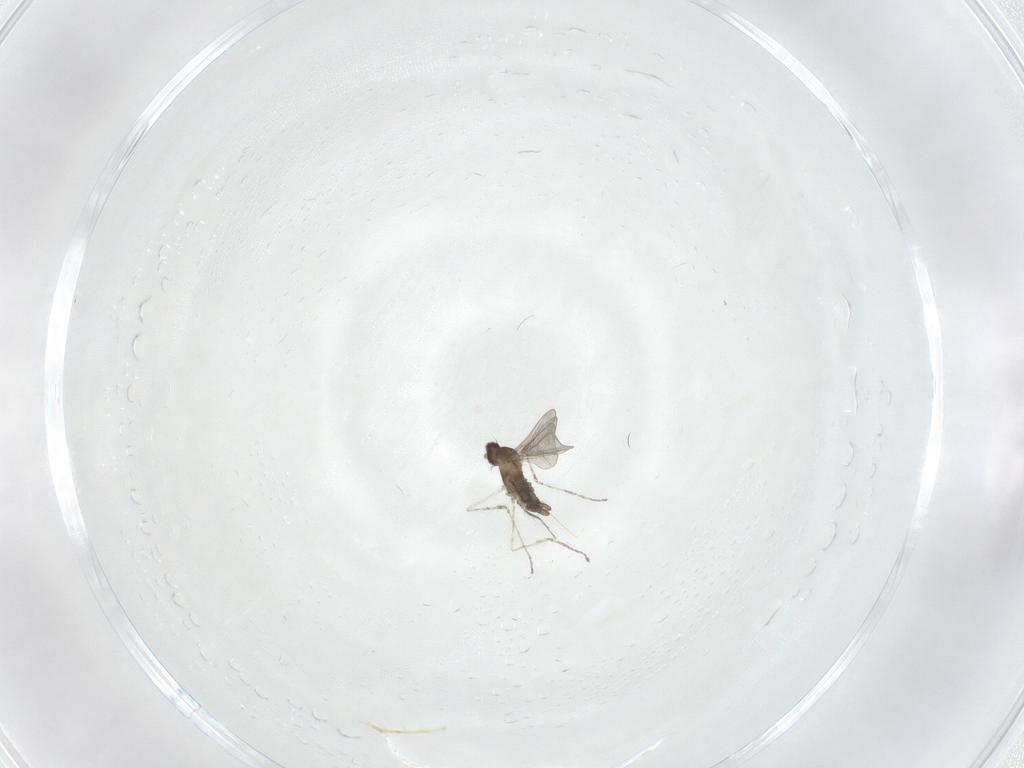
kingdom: Animalia
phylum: Arthropoda
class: Insecta
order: Diptera
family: Cecidomyiidae
